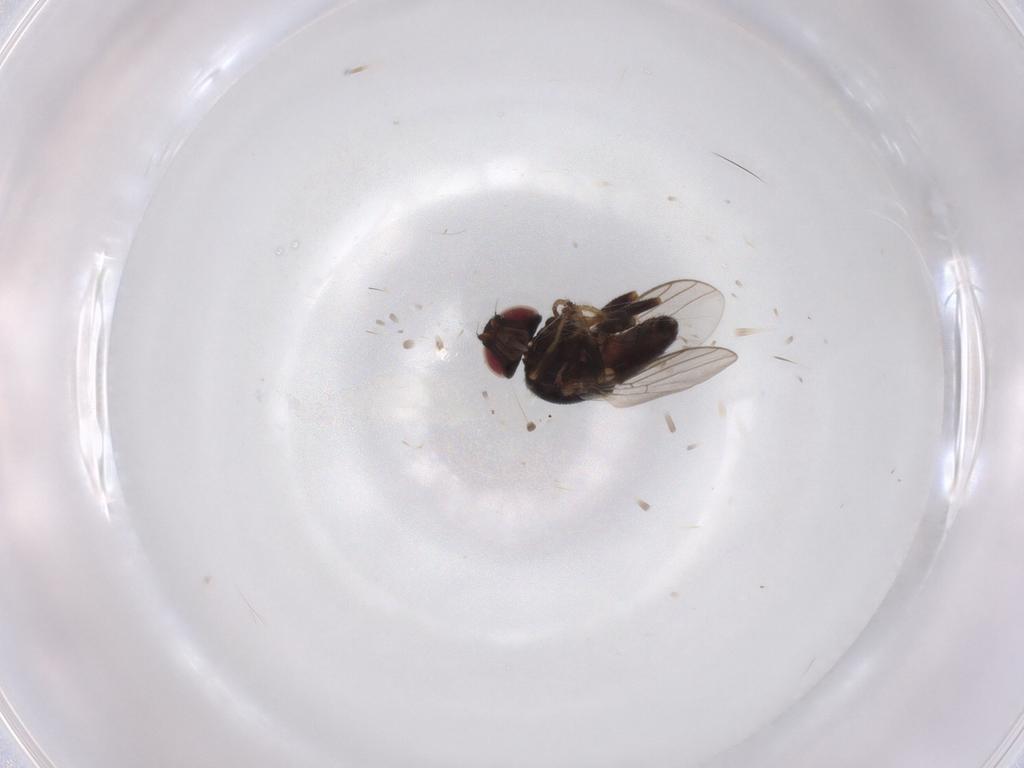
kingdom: Animalia
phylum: Arthropoda
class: Insecta
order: Diptera
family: Chloropidae
